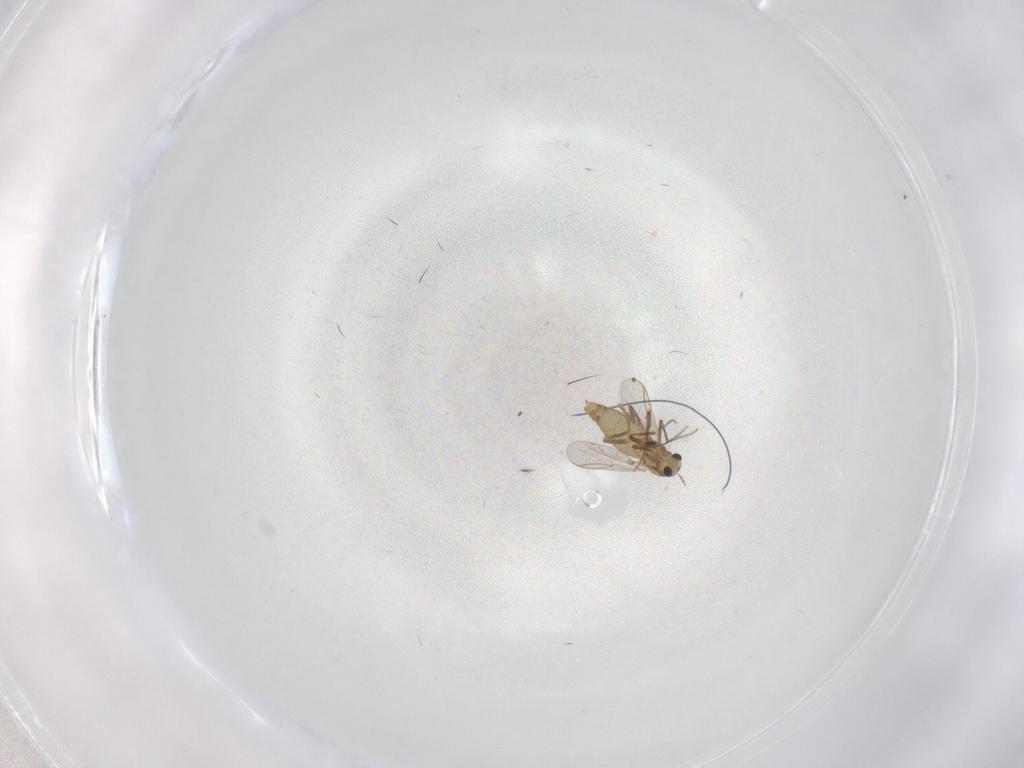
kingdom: Animalia
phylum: Arthropoda
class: Insecta
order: Diptera
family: Chironomidae
